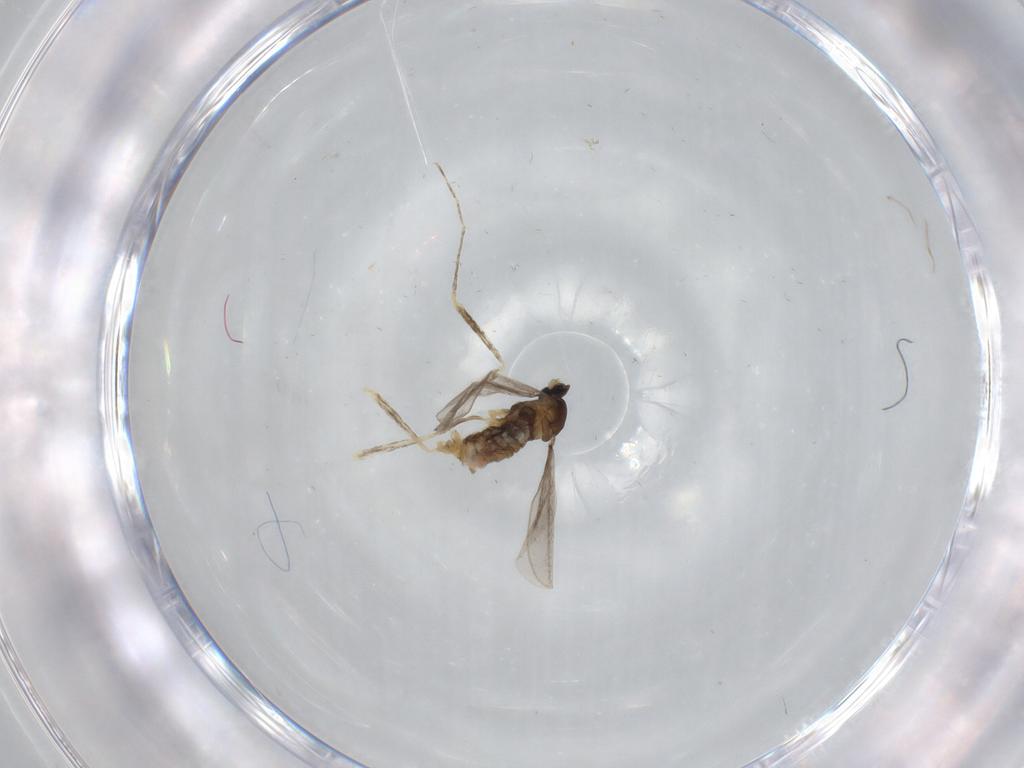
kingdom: Animalia
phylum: Arthropoda
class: Insecta
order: Diptera
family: Cecidomyiidae
